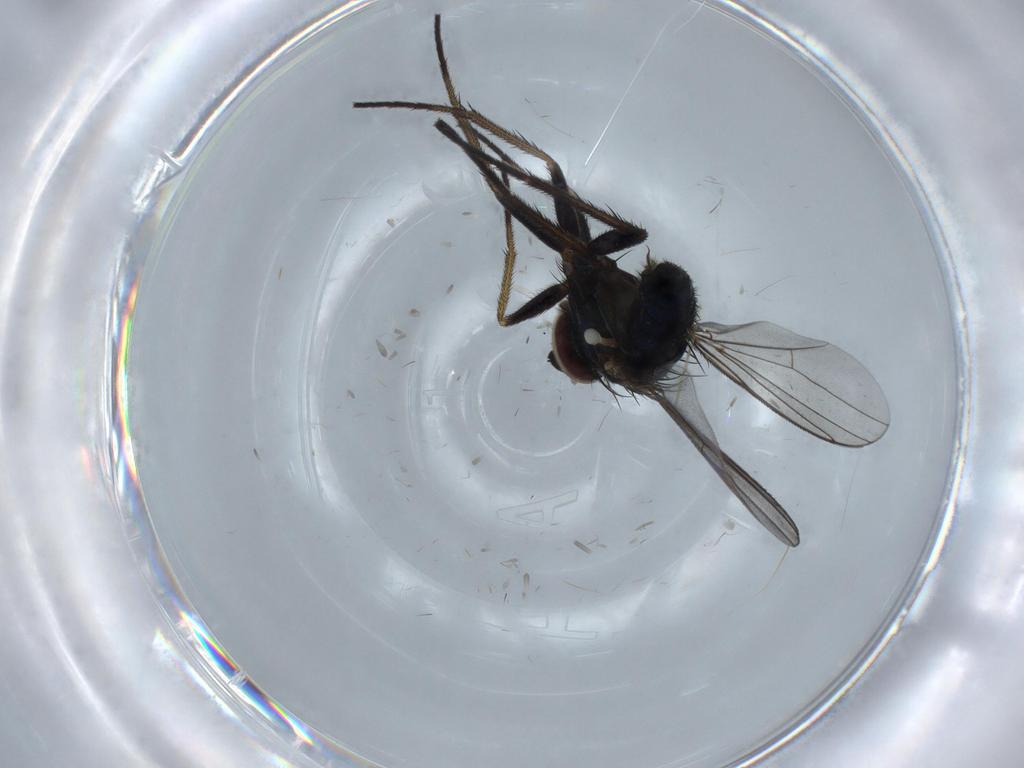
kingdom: Animalia
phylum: Arthropoda
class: Insecta
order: Diptera
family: Dolichopodidae
